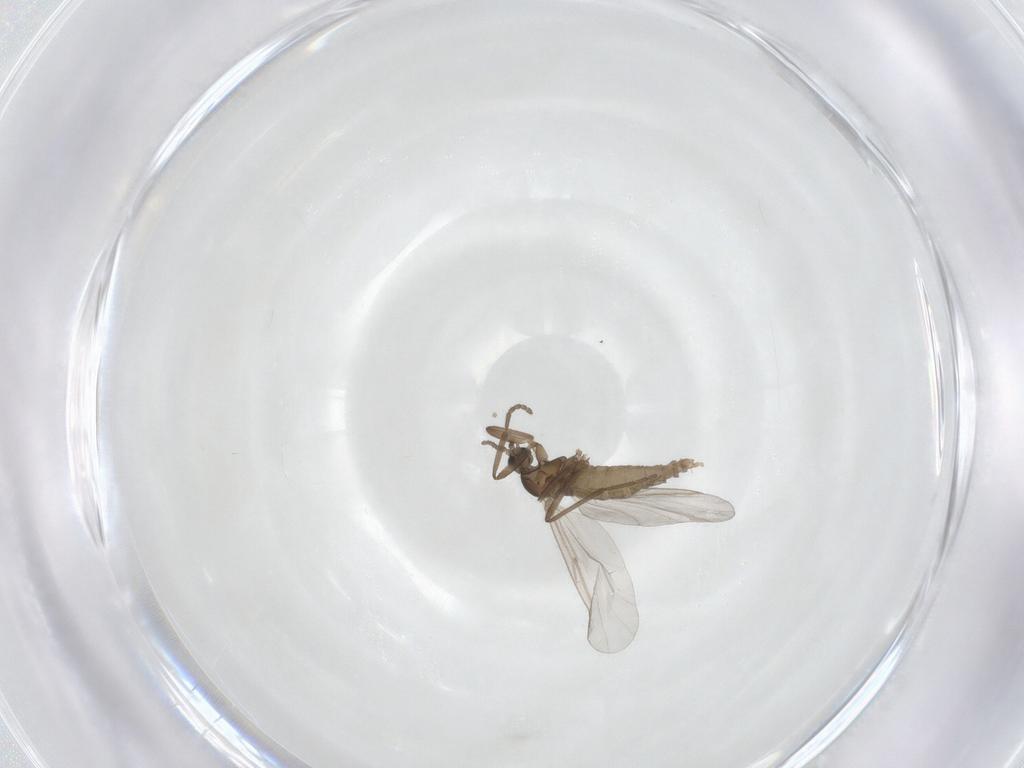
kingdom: Animalia
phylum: Arthropoda
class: Insecta
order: Diptera
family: Cecidomyiidae
